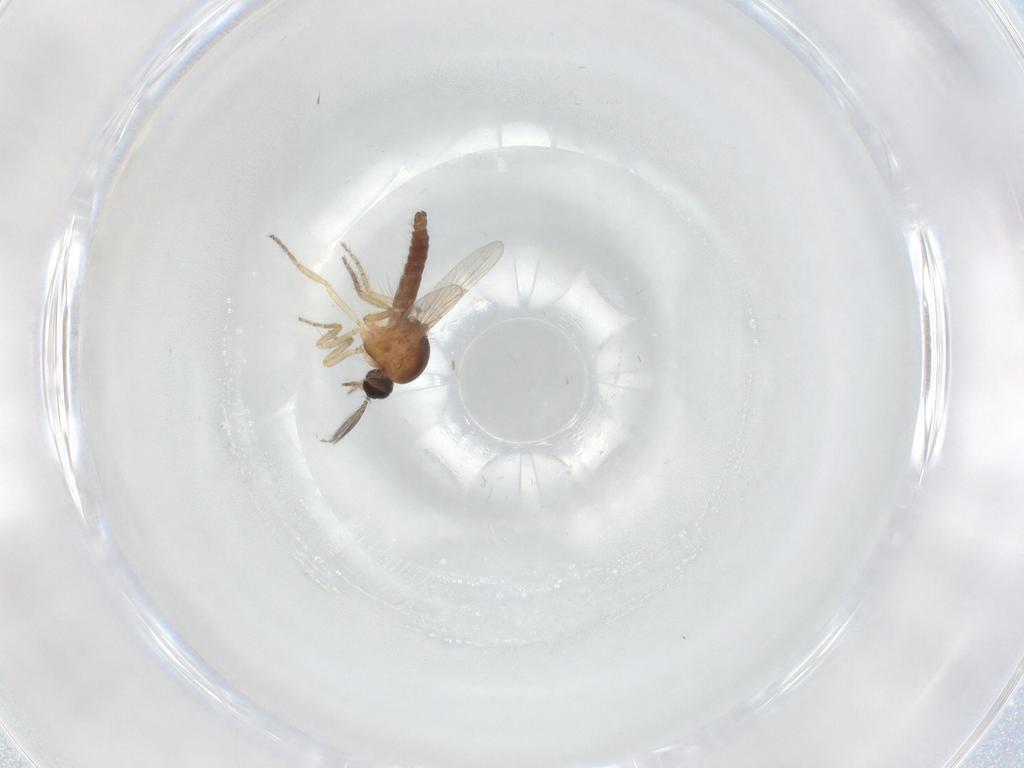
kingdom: Animalia
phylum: Arthropoda
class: Insecta
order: Diptera
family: Ceratopogonidae
